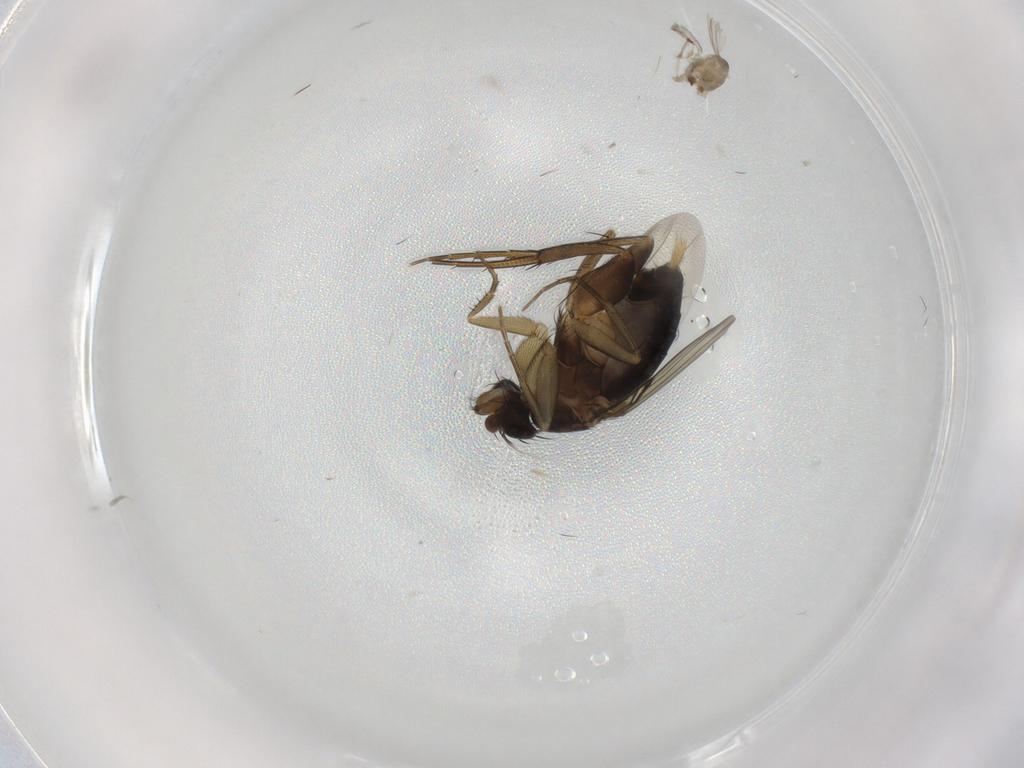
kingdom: Animalia
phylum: Arthropoda
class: Insecta
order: Diptera
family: Phoridae
